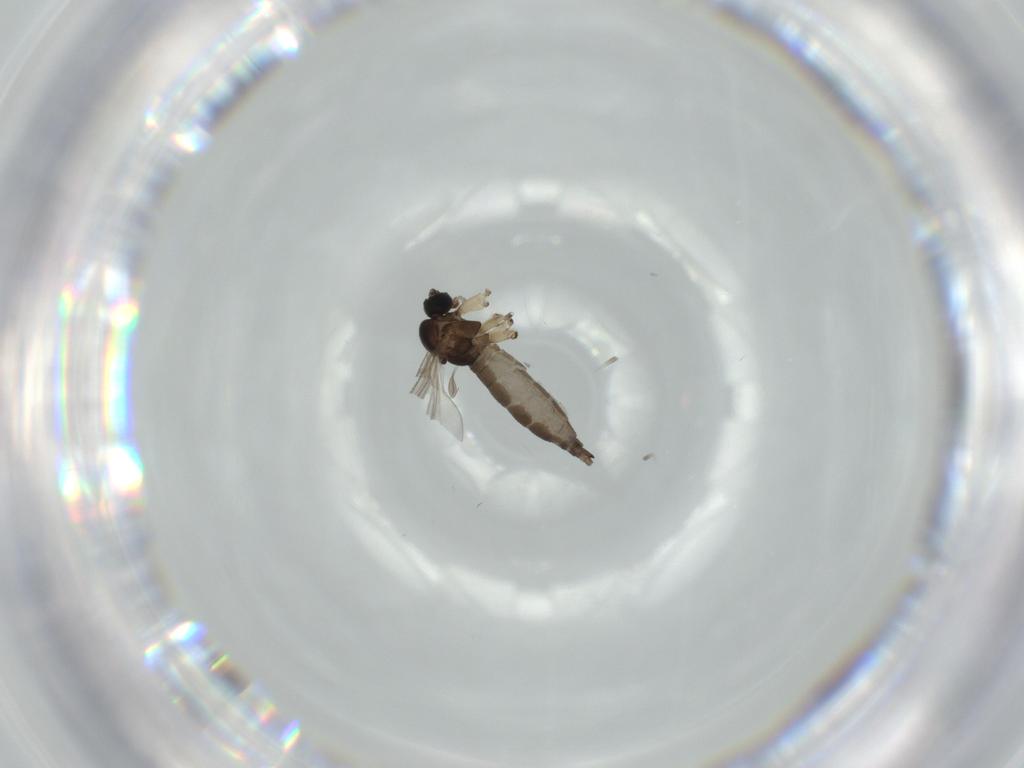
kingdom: Animalia
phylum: Arthropoda
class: Insecta
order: Diptera
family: Sciaridae
